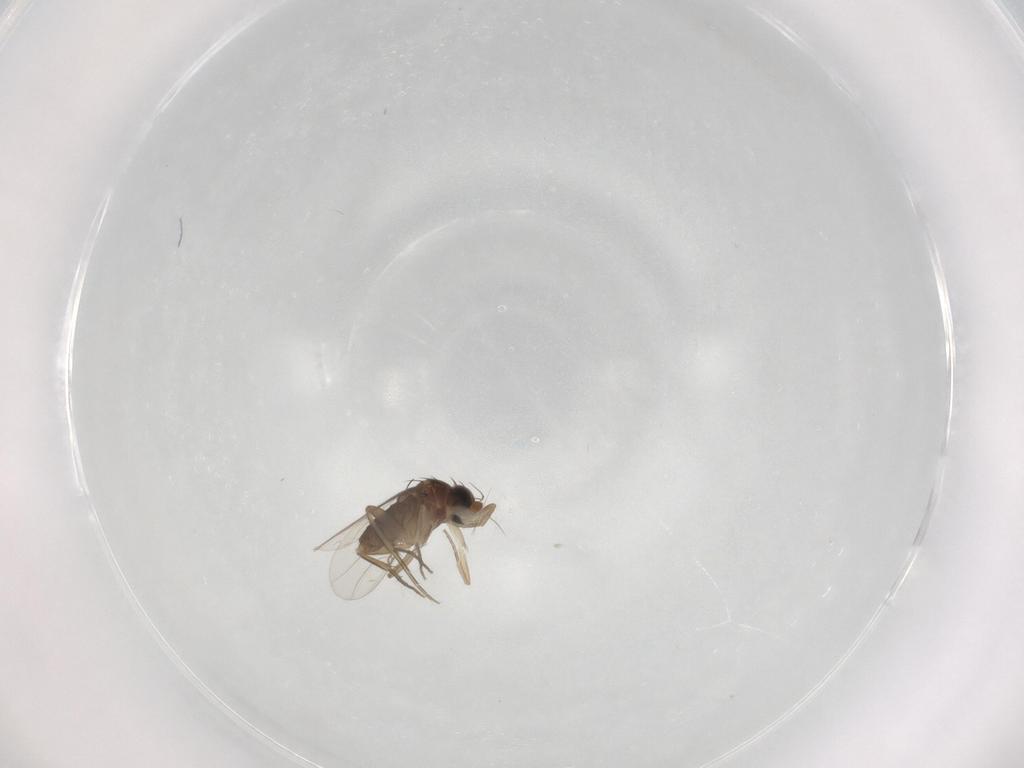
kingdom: Animalia
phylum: Arthropoda
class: Insecta
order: Diptera
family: Phoridae
